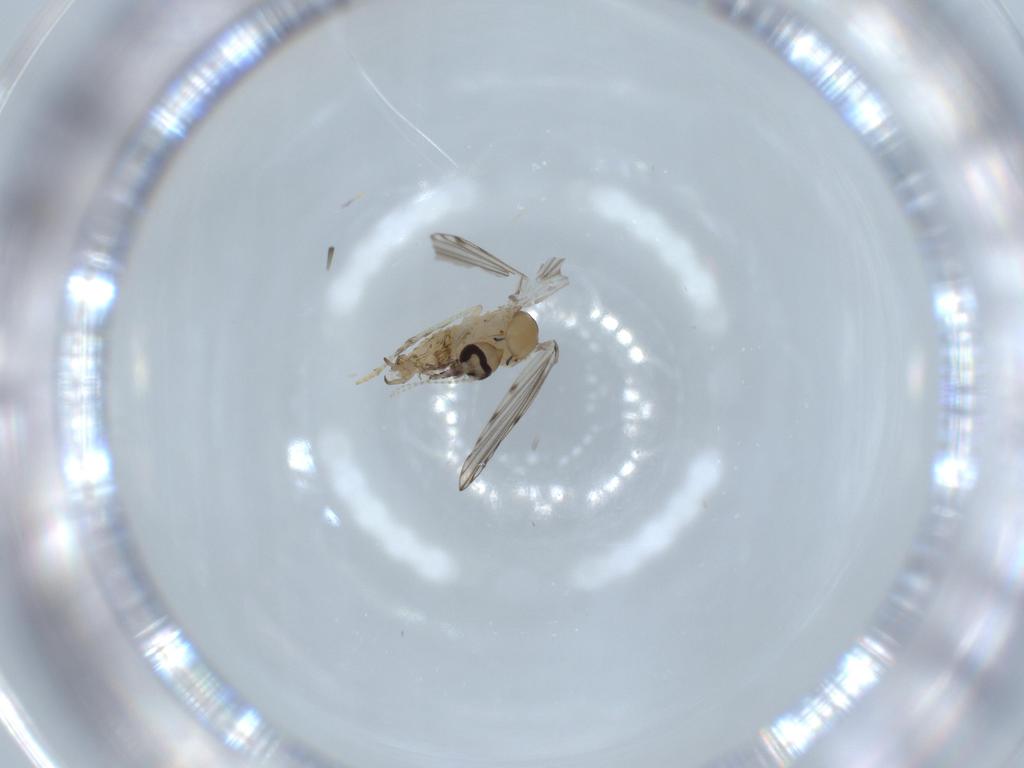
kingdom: Animalia
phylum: Arthropoda
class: Insecta
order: Diptera
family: Psychodidae
